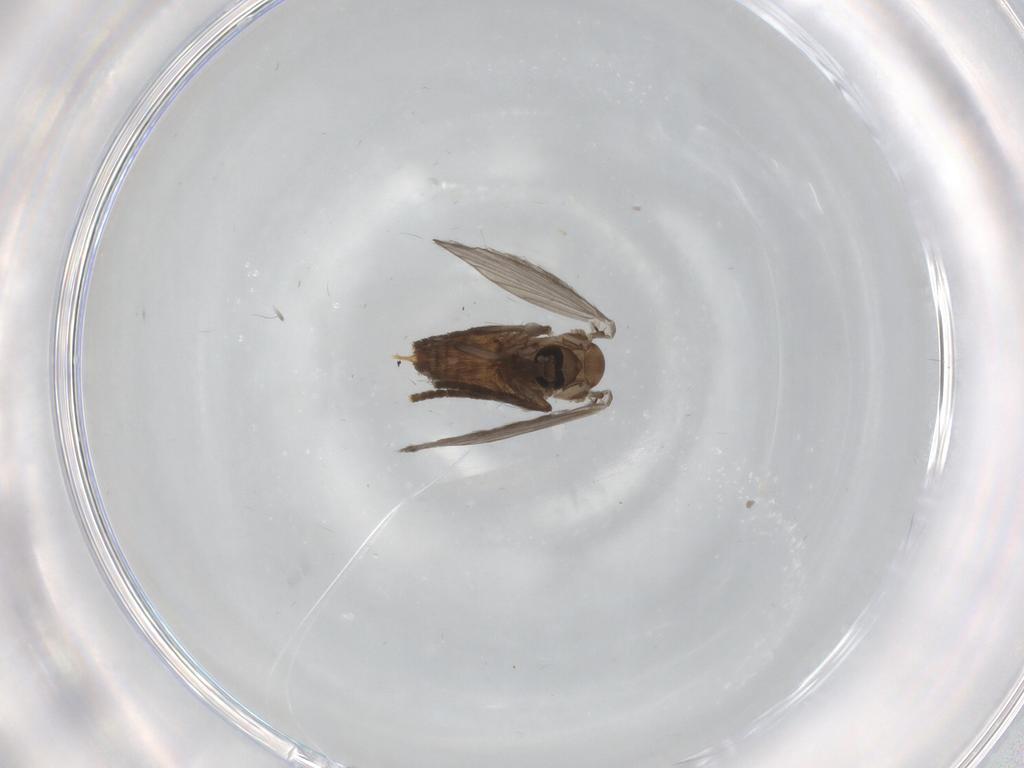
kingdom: Animalia
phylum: Arthropoda
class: Insecta
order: Diptera
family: Psychodidae
